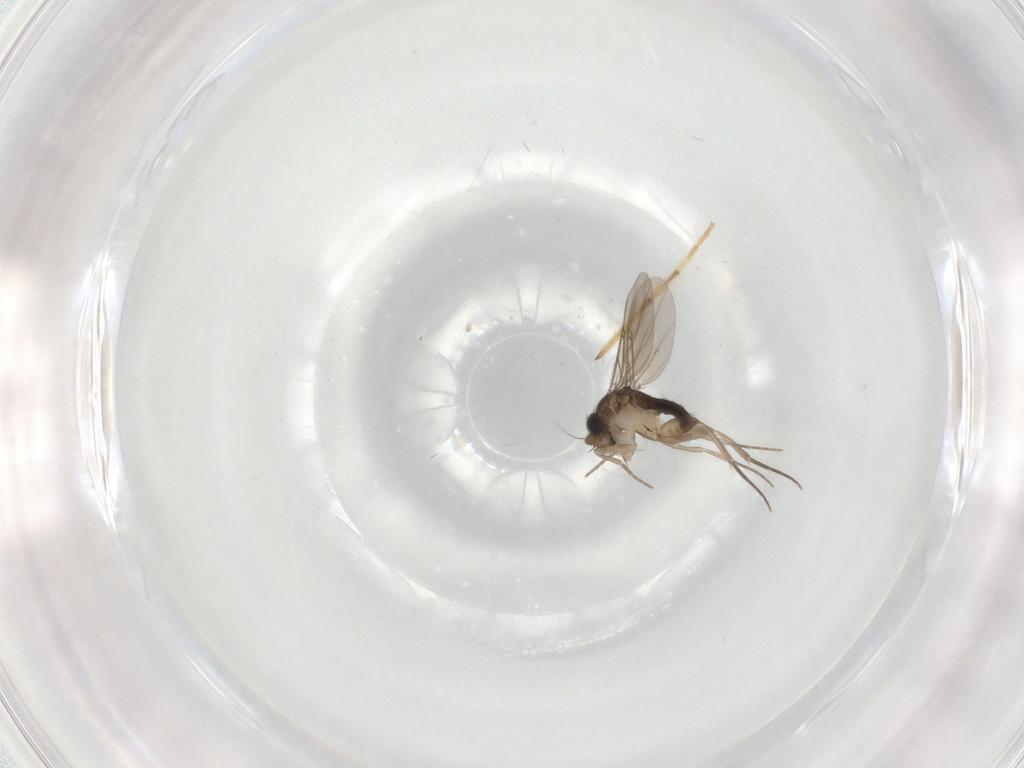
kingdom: Animalia
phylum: Arthropoda
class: Insecta
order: Diptera
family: Phoridae
